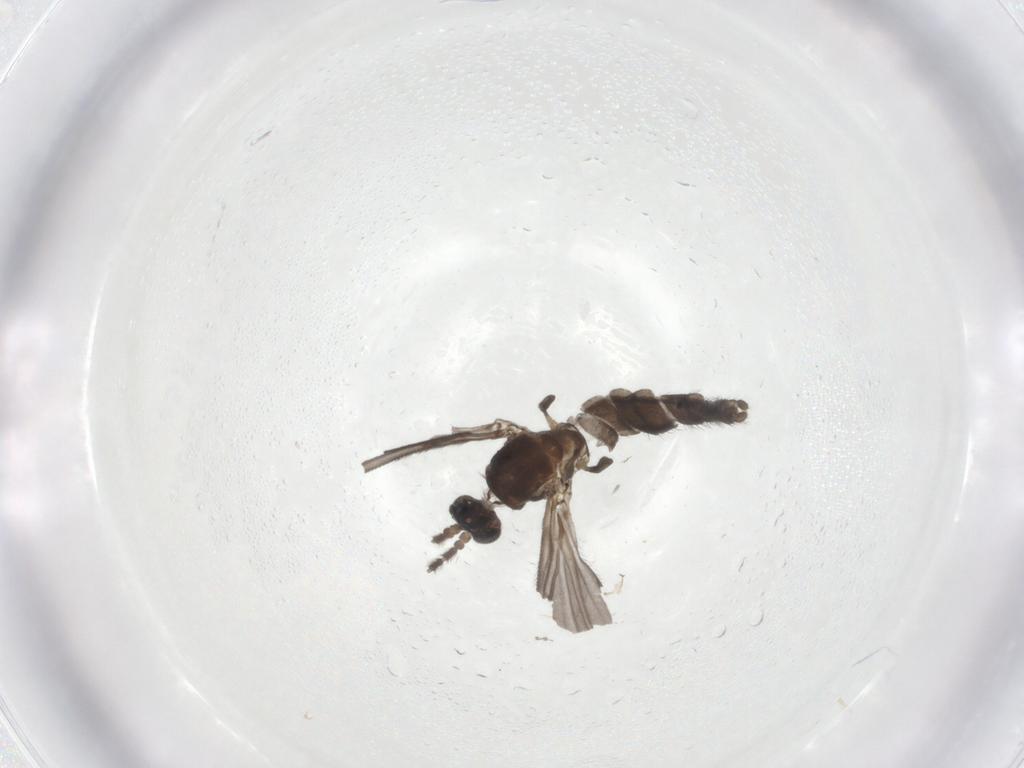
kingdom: Animalia
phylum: Arthropoda
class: Insecta
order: Diptera
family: Sciaridae
